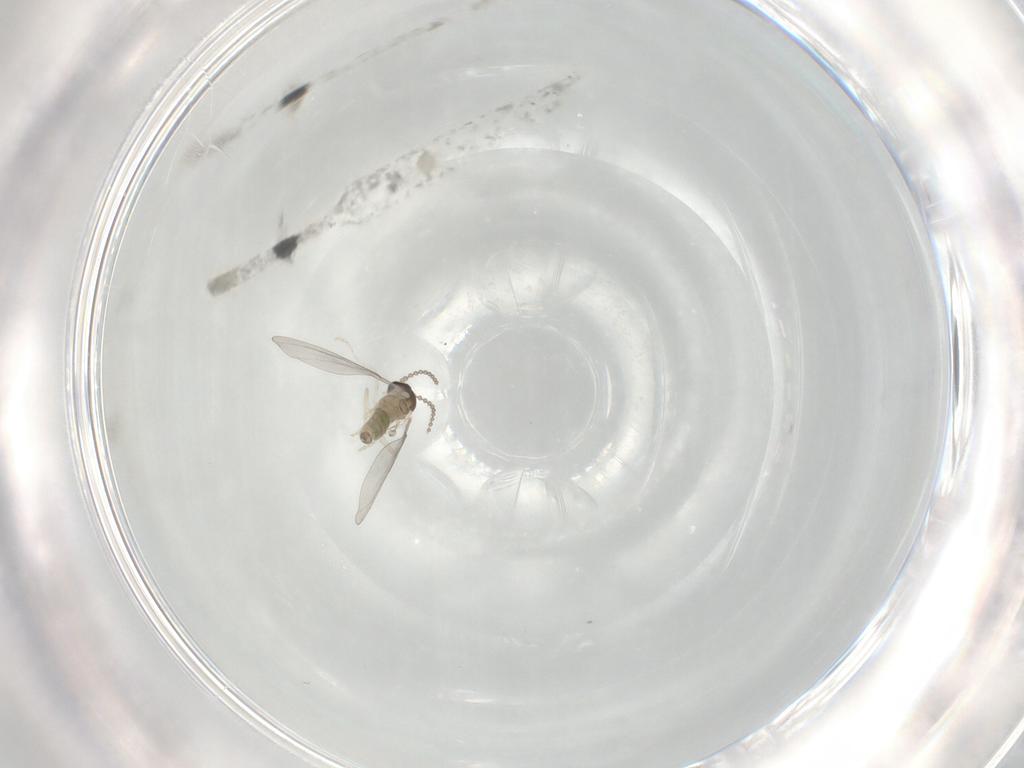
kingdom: Animalia
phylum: Arthropoda
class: Insecta
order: Diptera
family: Cecidomyiidae
